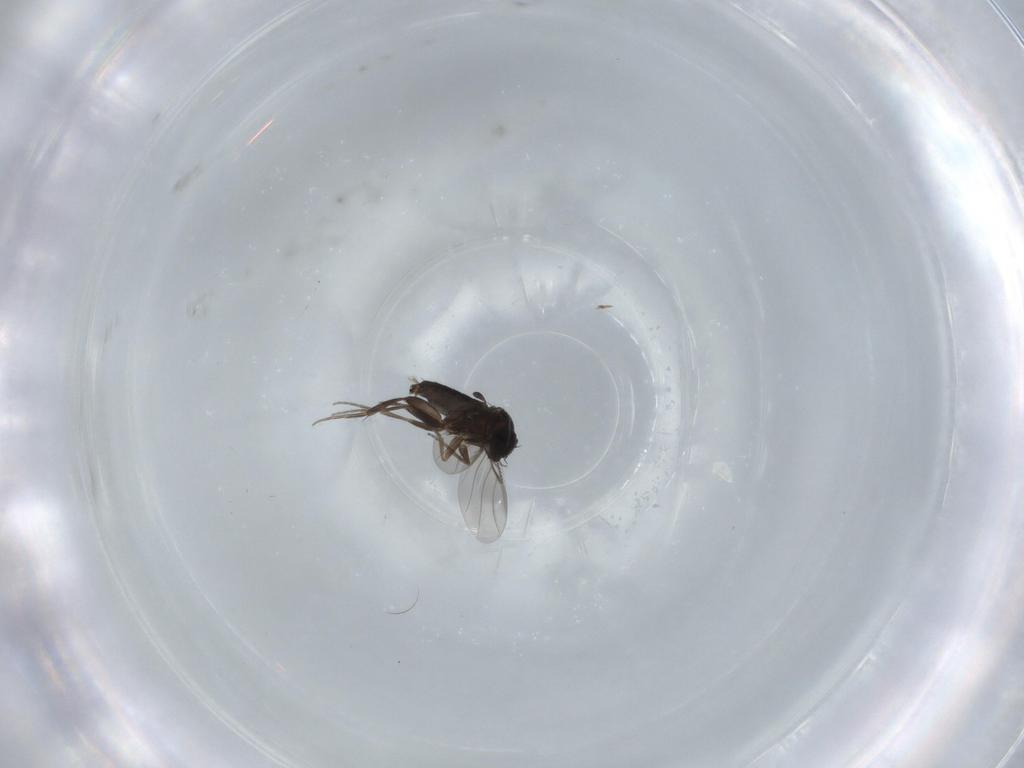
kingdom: Animalia
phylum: Arthropoda
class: Insecta
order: Diptera
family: Phoridae
